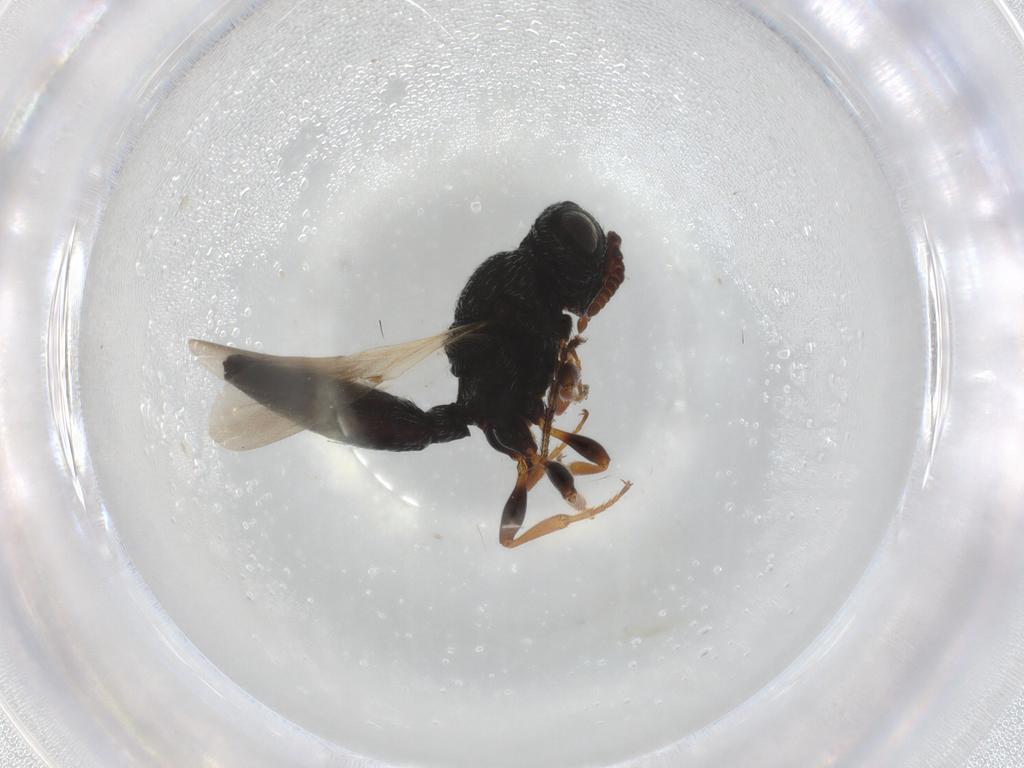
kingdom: Animalia
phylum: Arthropoda
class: Insecta
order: Hymenoptera
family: Scelionidae
